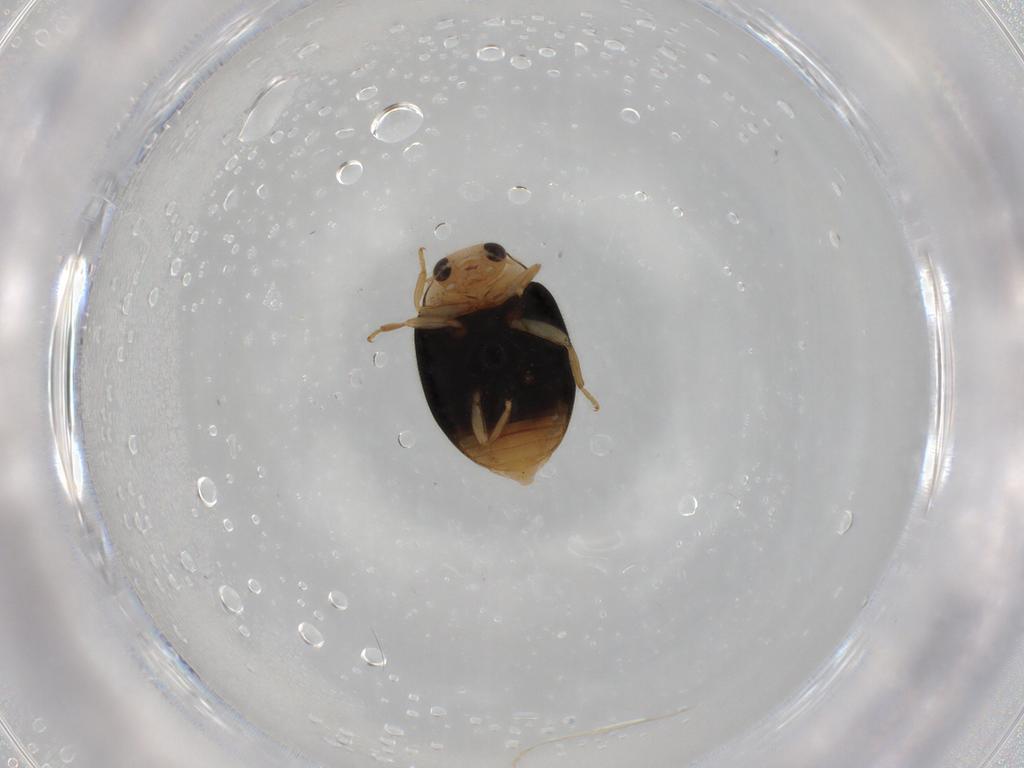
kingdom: Animalia
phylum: Arthropoda
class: Insecta
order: Coleoptera
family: Coccinellidae
